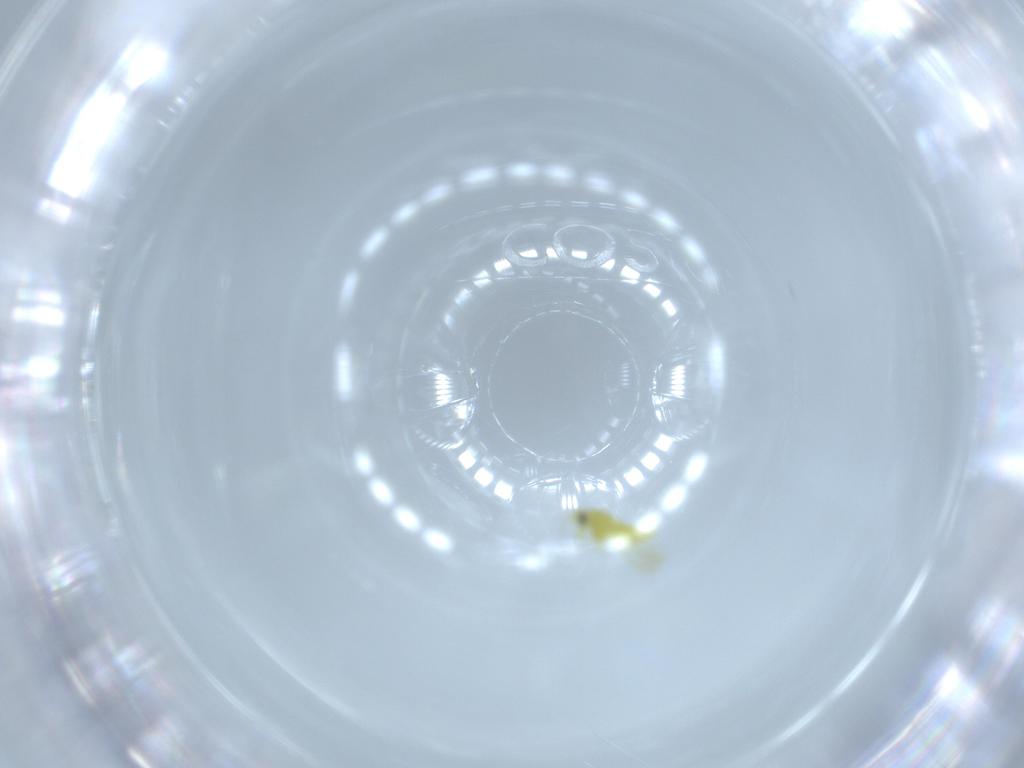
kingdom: Animalia
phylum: Arthropoda
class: Insecta
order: Hemiptera
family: Aleyrodidae
